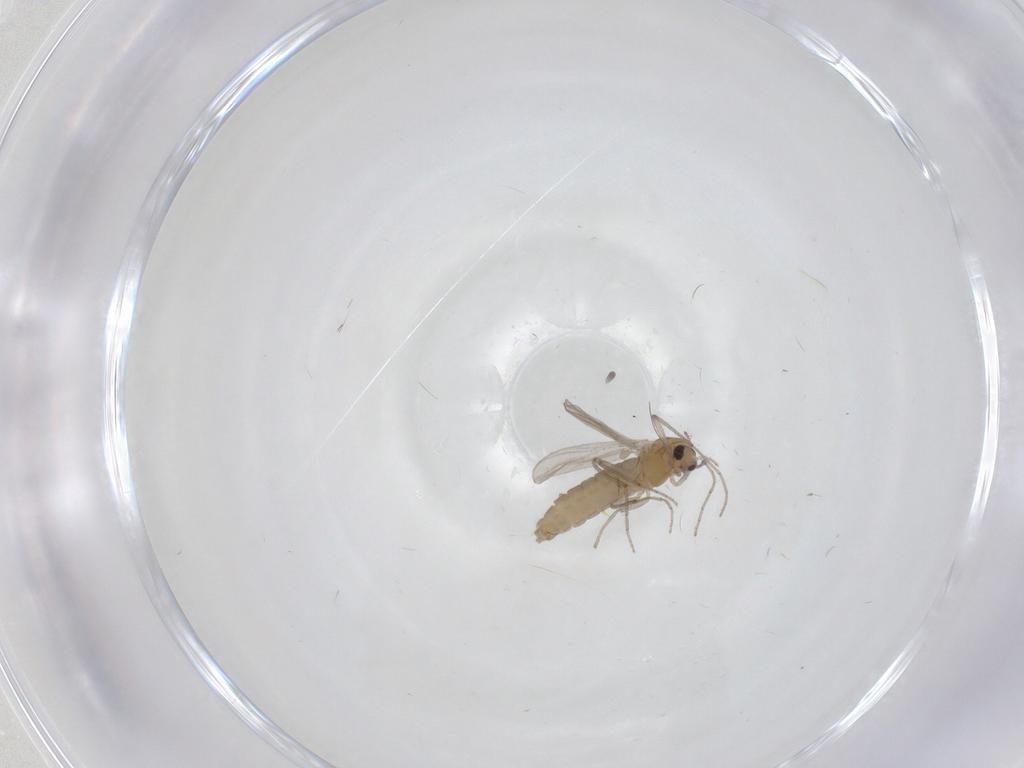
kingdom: Animalia
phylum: Arthropoda
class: Insecta
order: Diptera
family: Chironomidae
